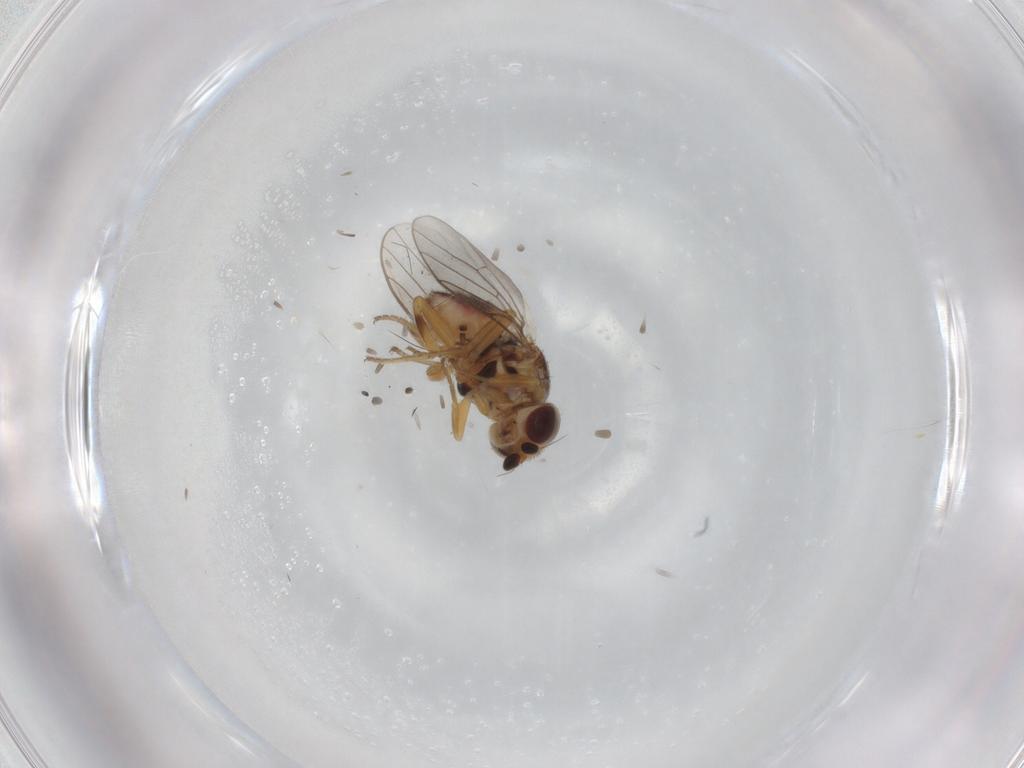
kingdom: Animalia
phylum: Arthropoda
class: Insecta
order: Diptera
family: Chloropidae
